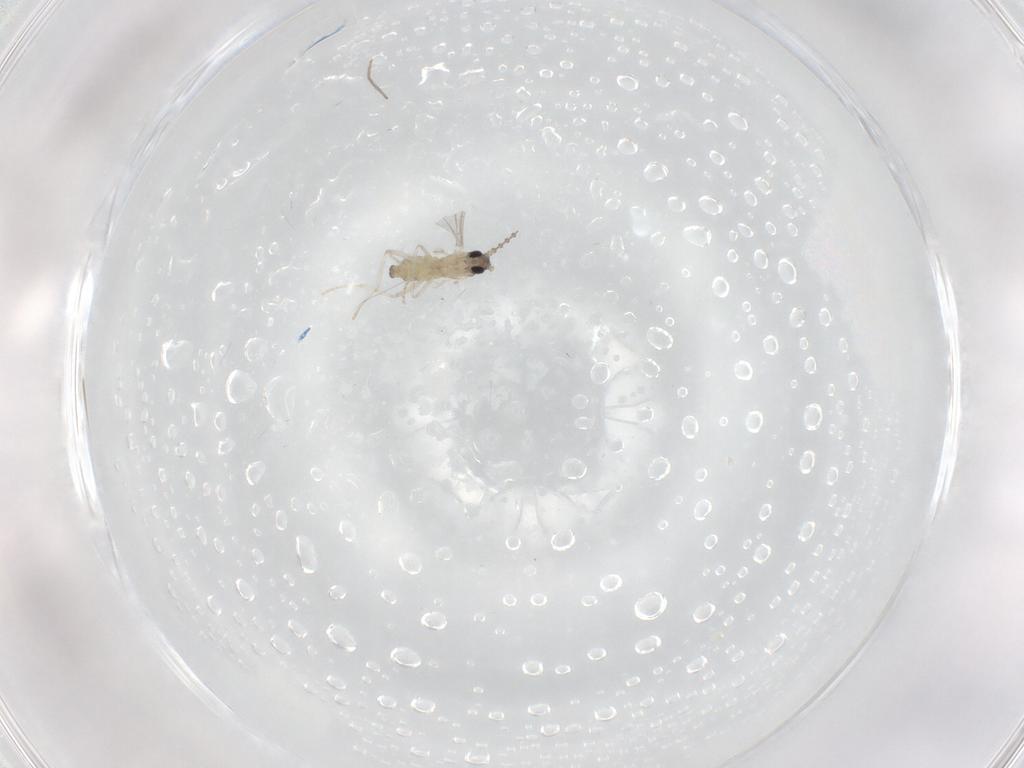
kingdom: Animalia
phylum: Arthropoda
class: Insecta
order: Diptera
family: Cecidomyiidae
